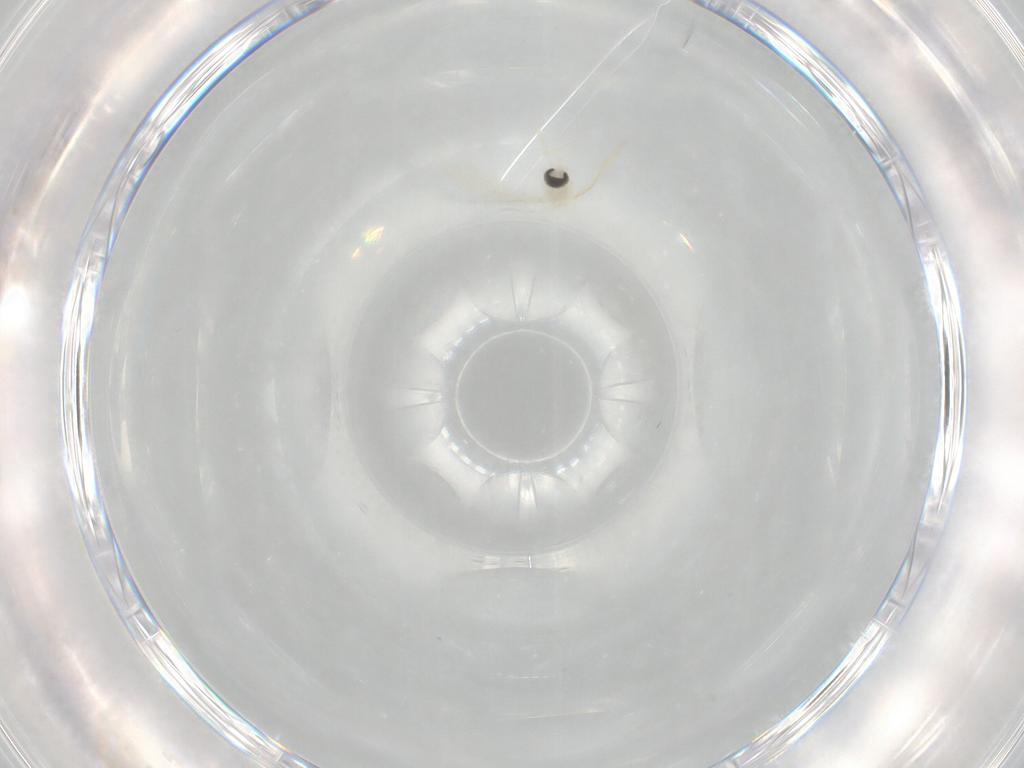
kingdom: Animalia
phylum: Arthropoda
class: Insecta
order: Diptera
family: Cecidomyiidae
